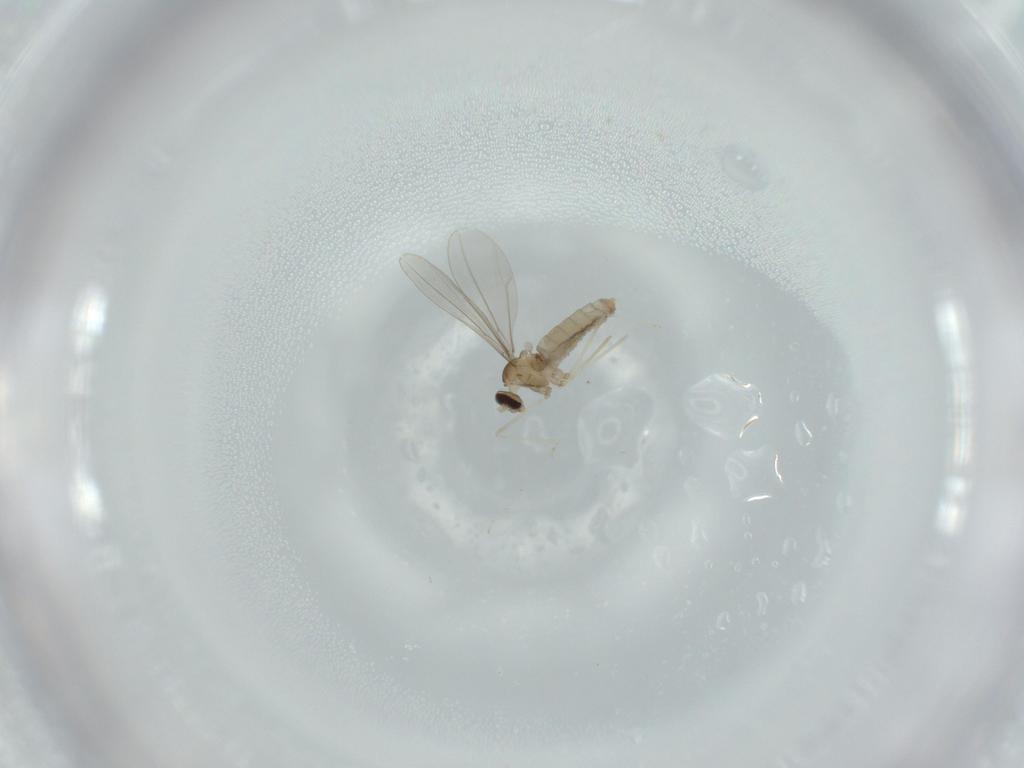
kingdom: Animalia
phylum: Arthropoda
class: Insecta
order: Diptera
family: Cecidomyiidae
